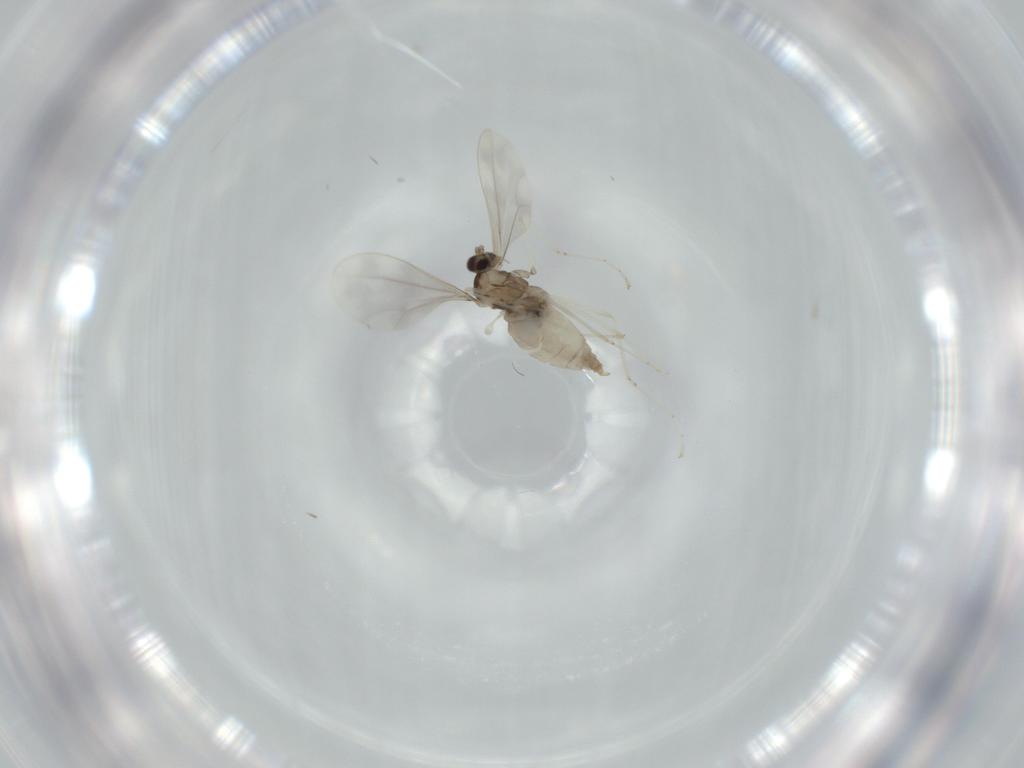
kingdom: Animalia
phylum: Arthropoda
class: Insecta
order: Diptera
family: Cecidomyiidae
